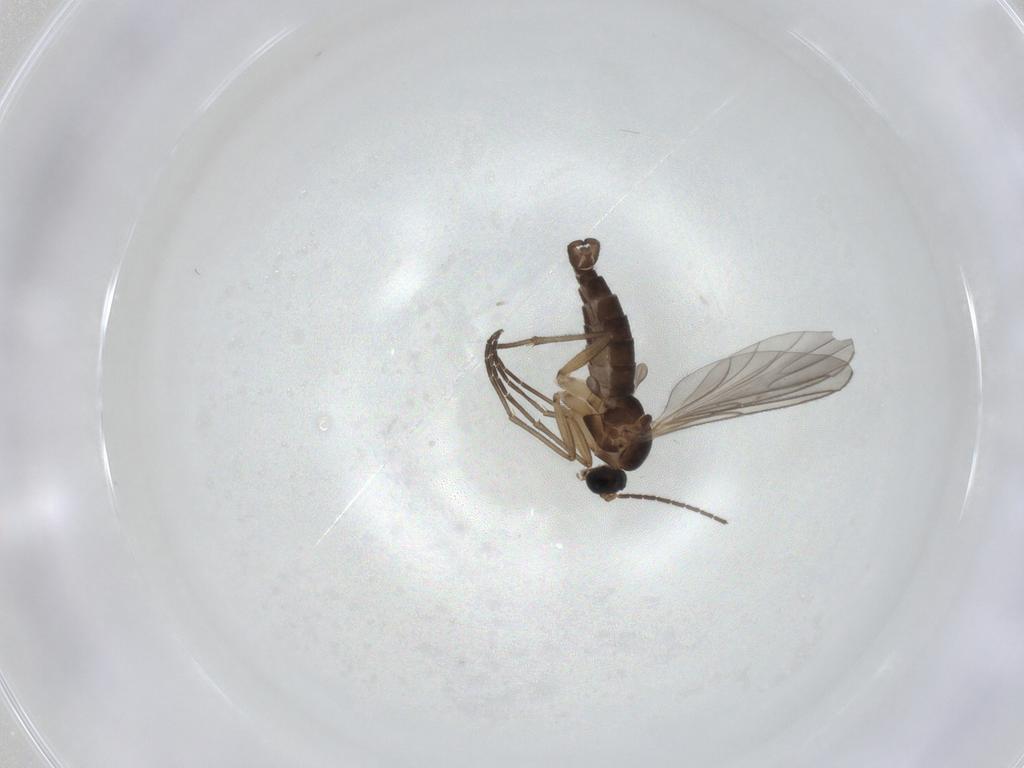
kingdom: Animalia
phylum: Arthropoda
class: Insecta
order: Diptera
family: Sciaridae
